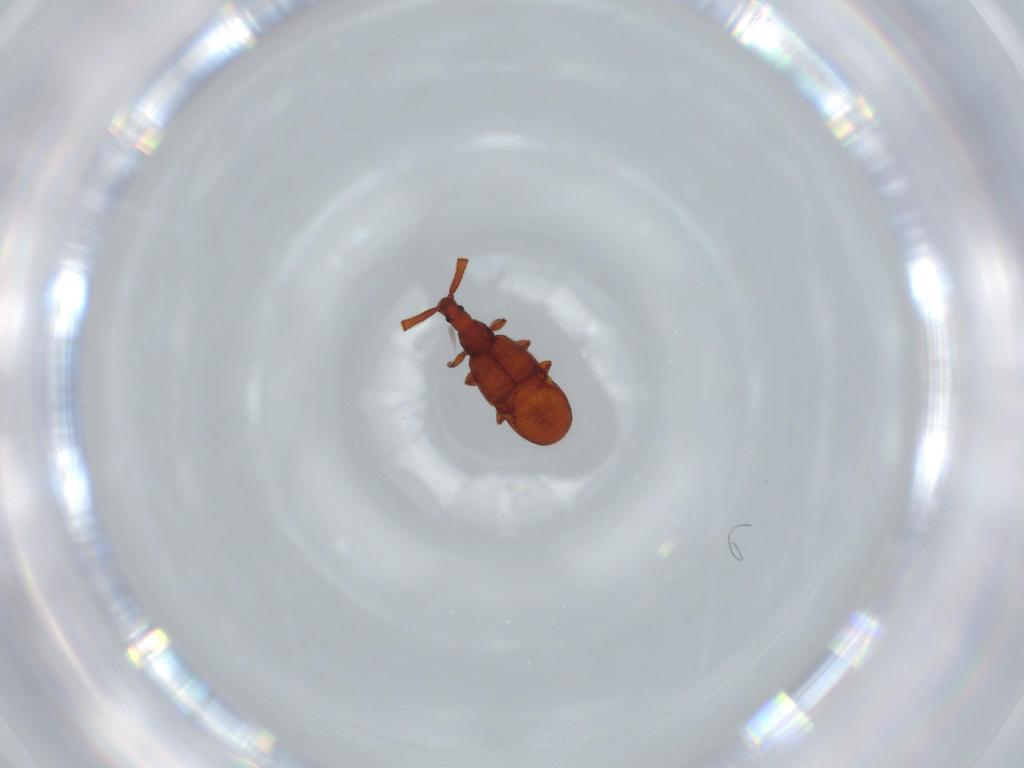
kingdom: Animalia
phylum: Arthropoda
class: Insecta
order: Coleoptera
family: Staphylinidae
